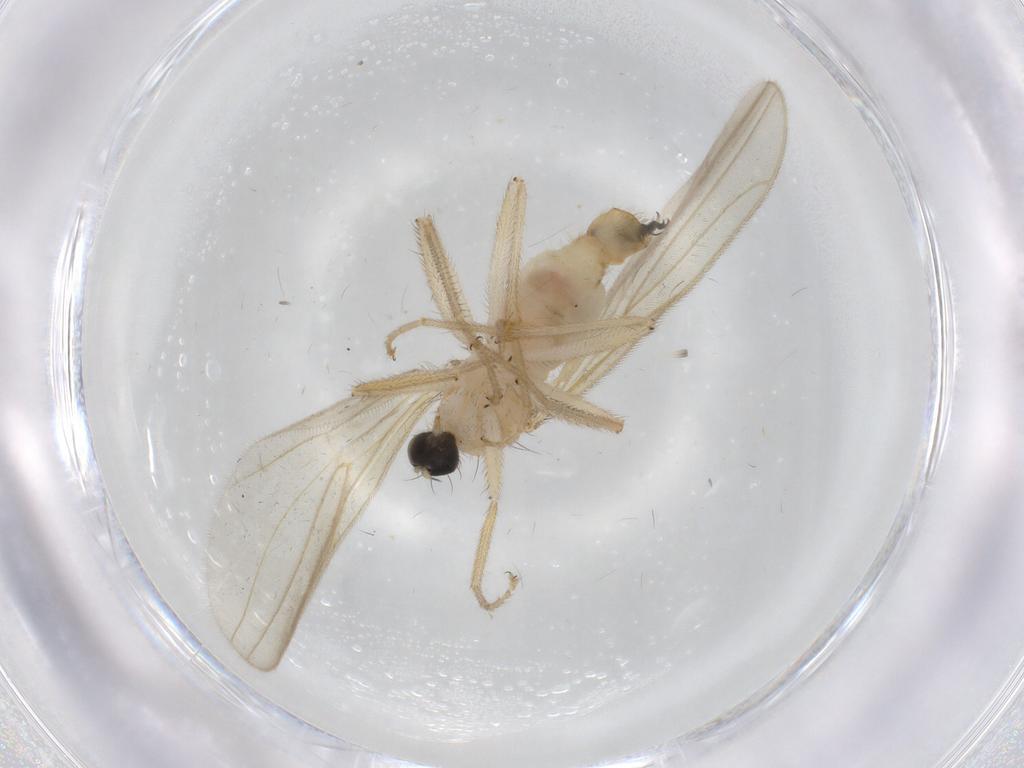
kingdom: Animalia
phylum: Arthropoda
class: Insecta
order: Diptera
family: Hybotidae
